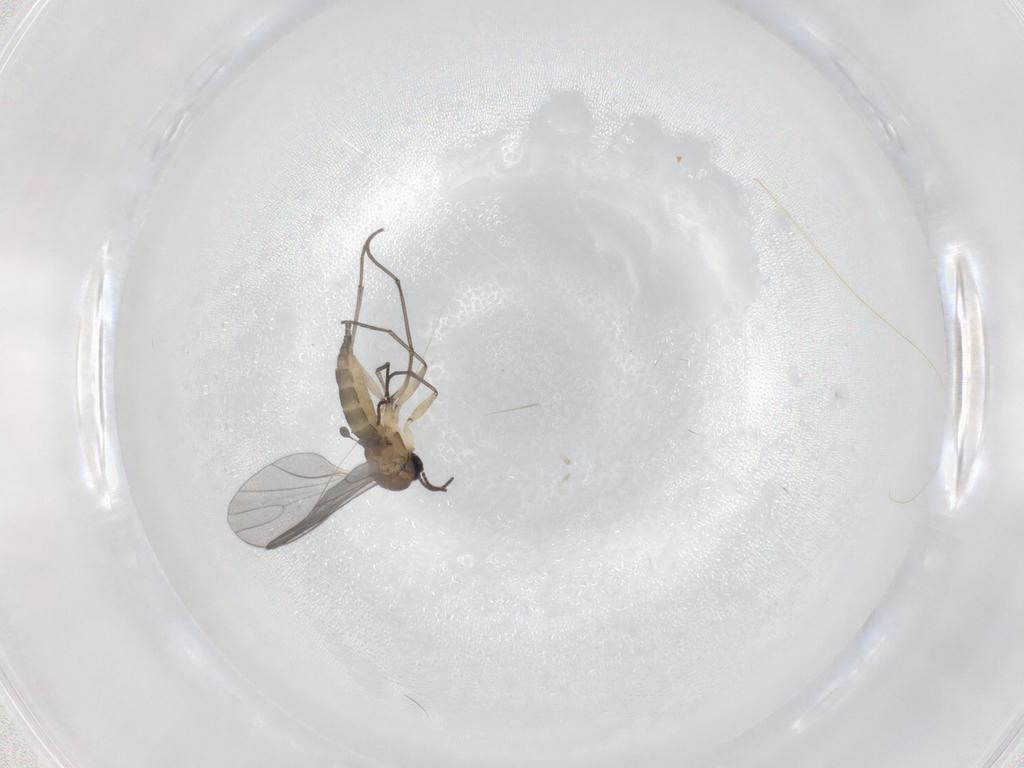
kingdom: Animalia
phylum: Arthropoda
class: Insecta
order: Diptera
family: Sciaridae
